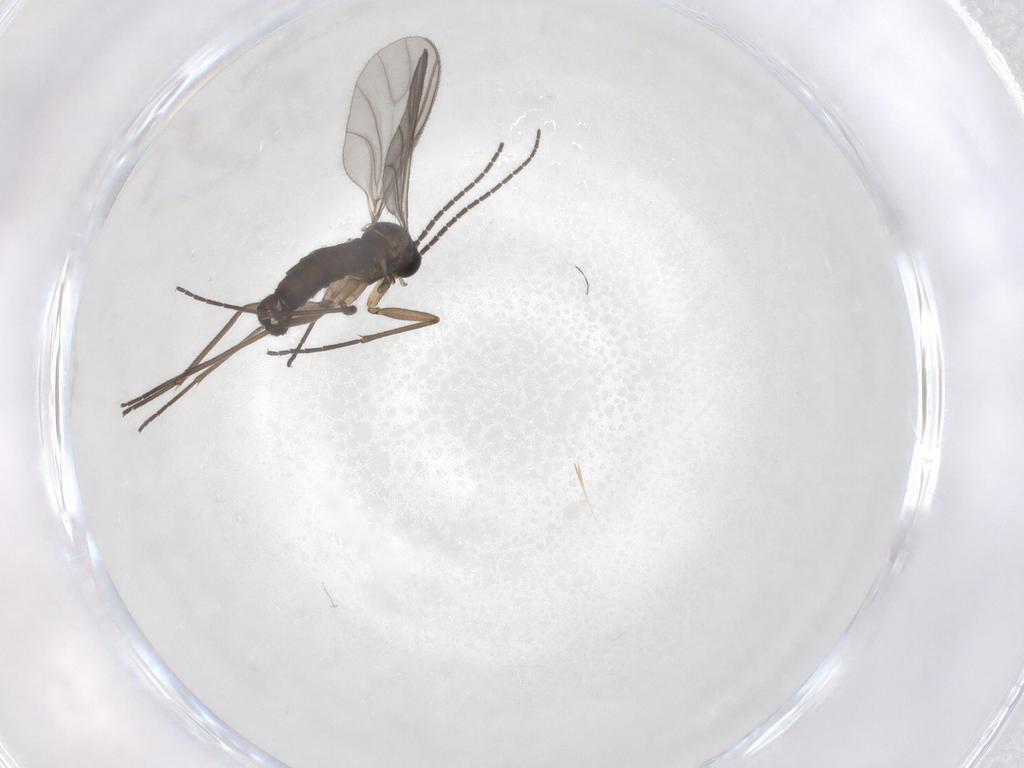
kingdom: Animalia
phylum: Arthropoda
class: Insecta
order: Diptera
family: Sciaridae
